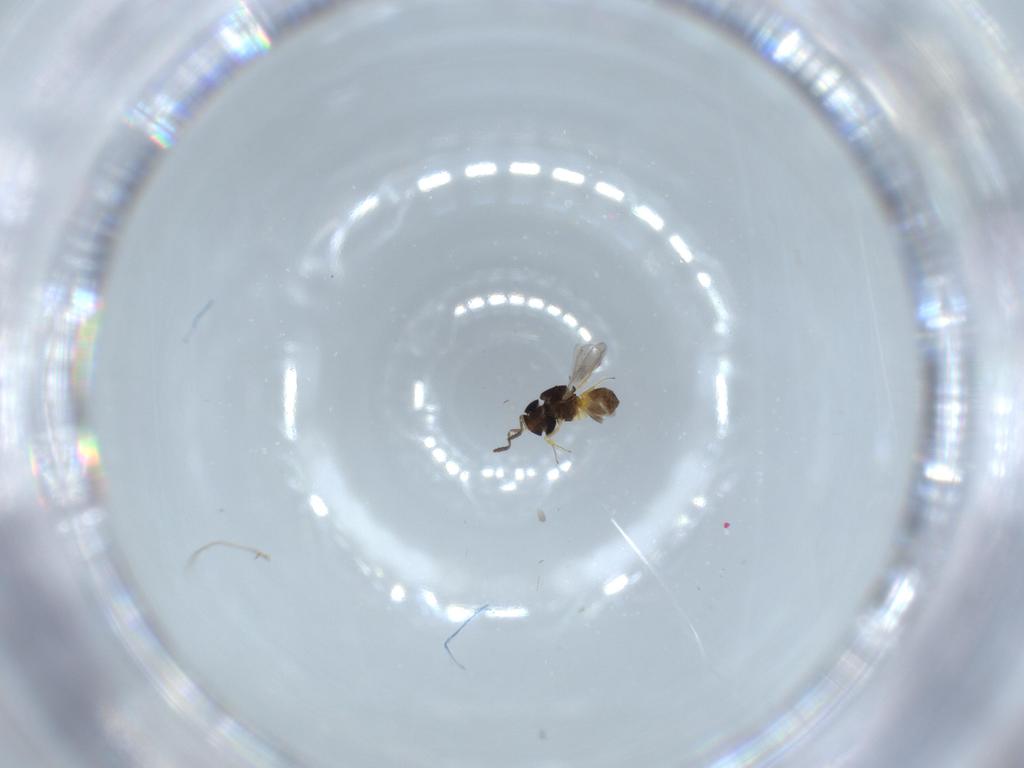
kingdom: Animalia
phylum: Arthropoda
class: Insecta
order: Hymenoptera
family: Scelionidae
